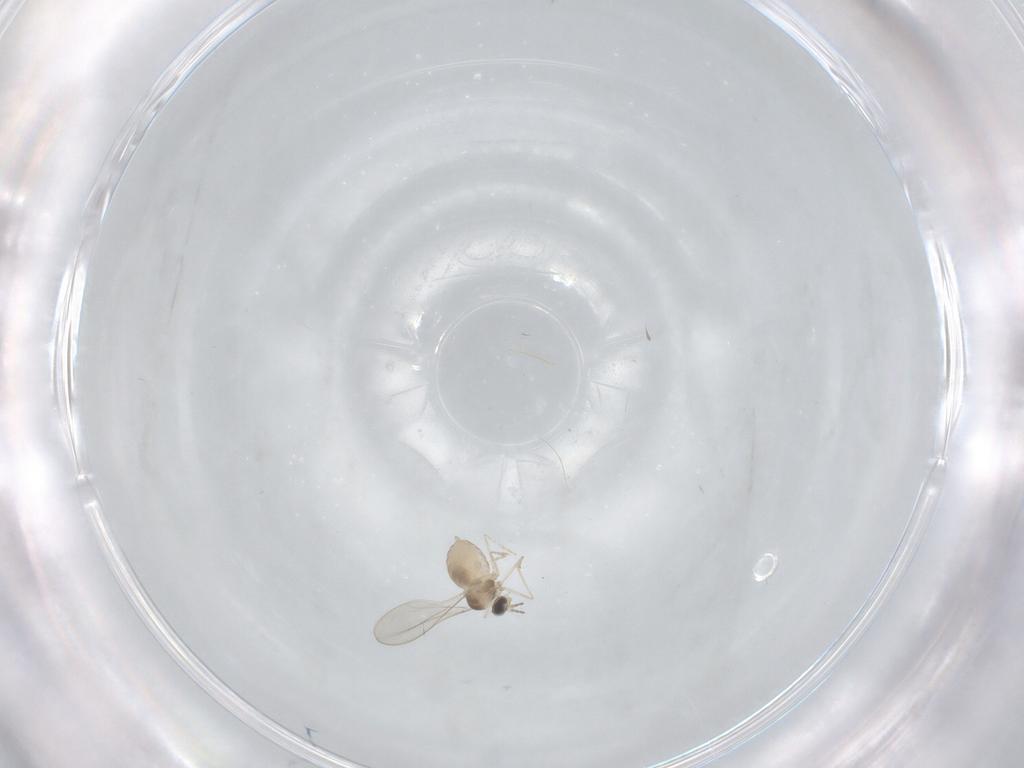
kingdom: Animalia
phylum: Arthropoda
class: Insecta
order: Diptera
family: Cecidomyiidae
